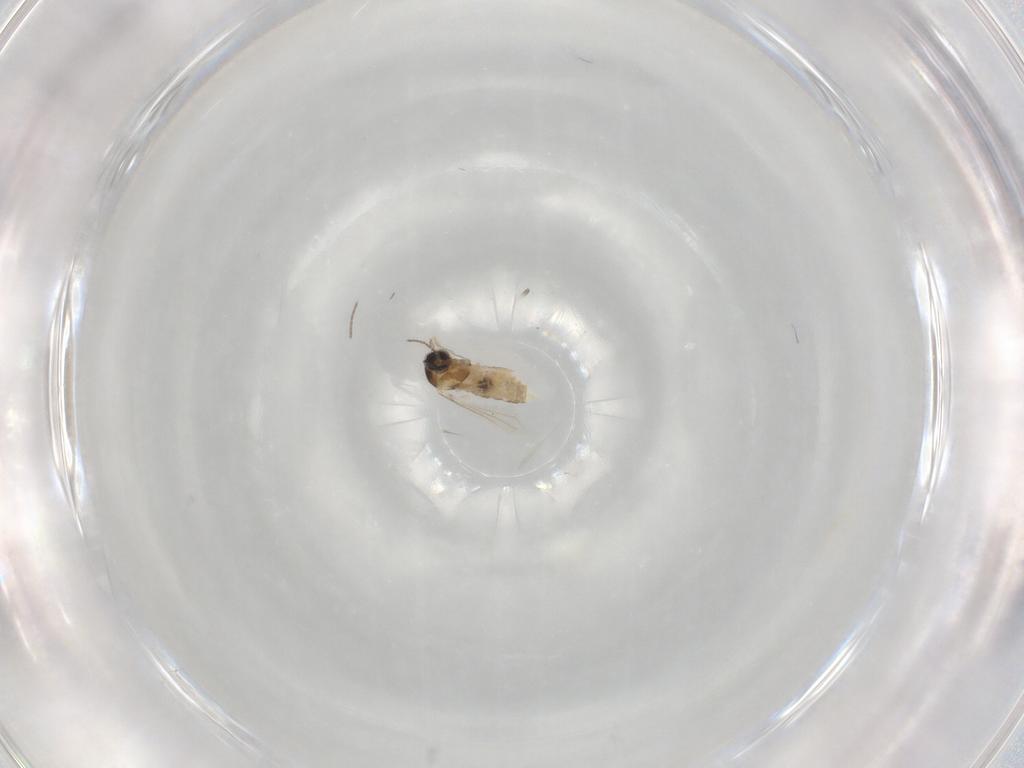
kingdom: Animalia
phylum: Arthropoda
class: Insecta
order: Diptera
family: Cecidomyiidae
